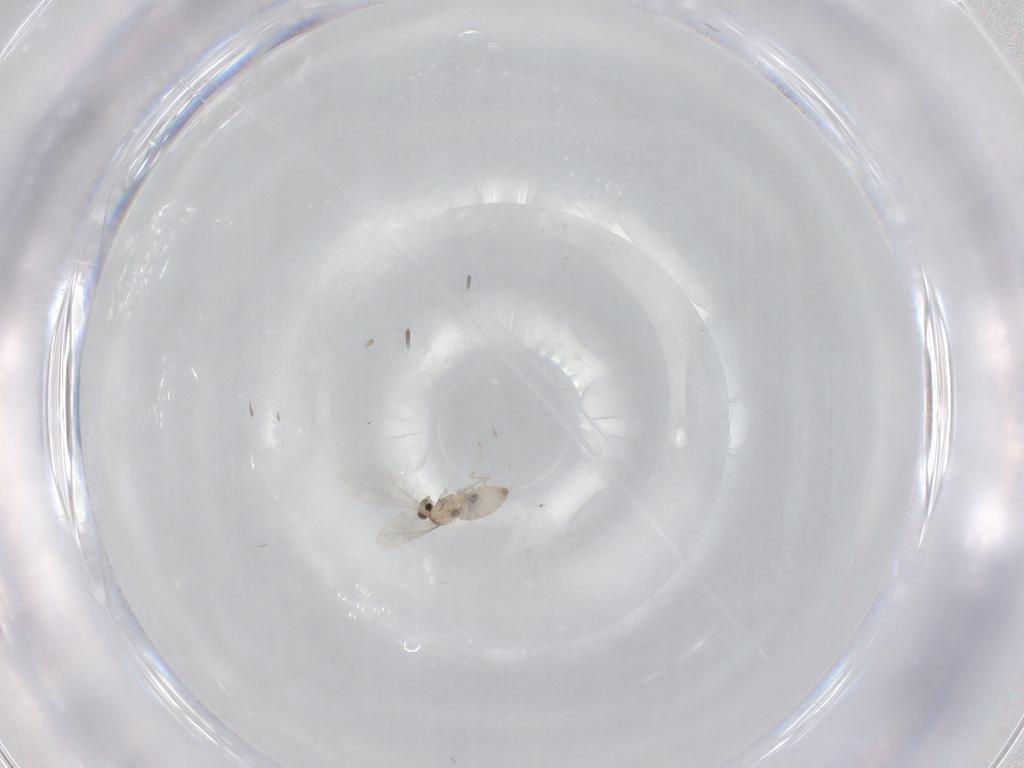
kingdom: Animalia
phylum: Arthropoda
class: Insecta
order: Diptera
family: Cecidomyiidae
